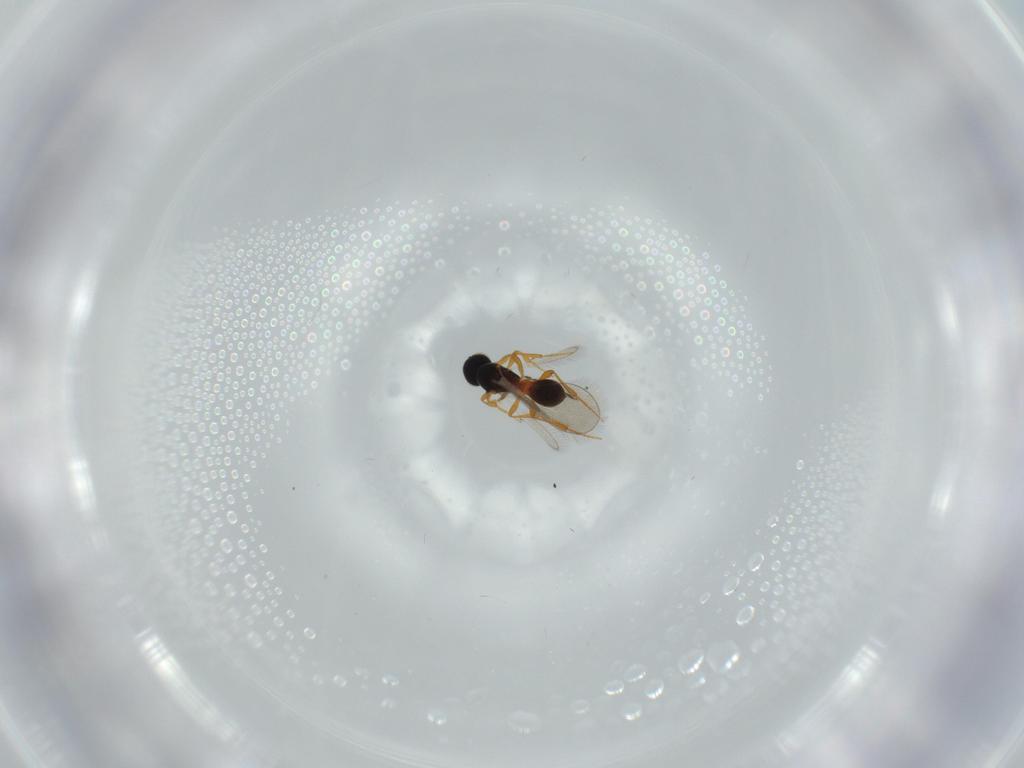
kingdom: Animalia
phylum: Arthropoda
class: Insecta
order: Hymenoptera
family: Platygastridae
